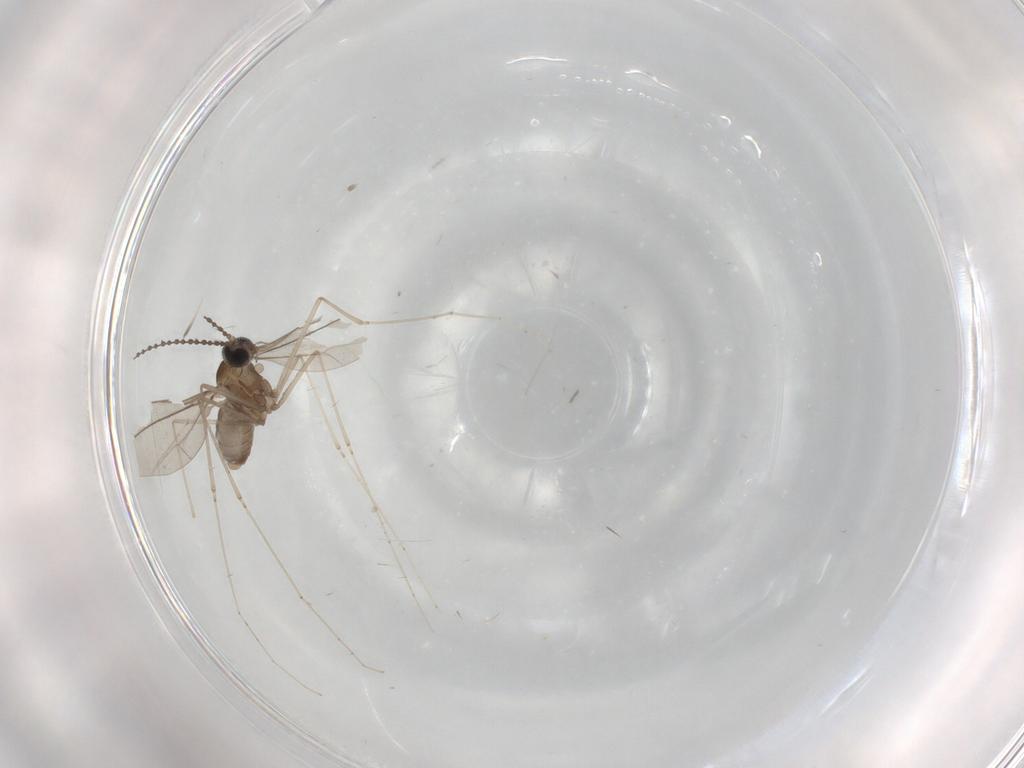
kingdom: Animalia
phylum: Arthropoda
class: Insecta
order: Diptera
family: Cecidomyiidae
